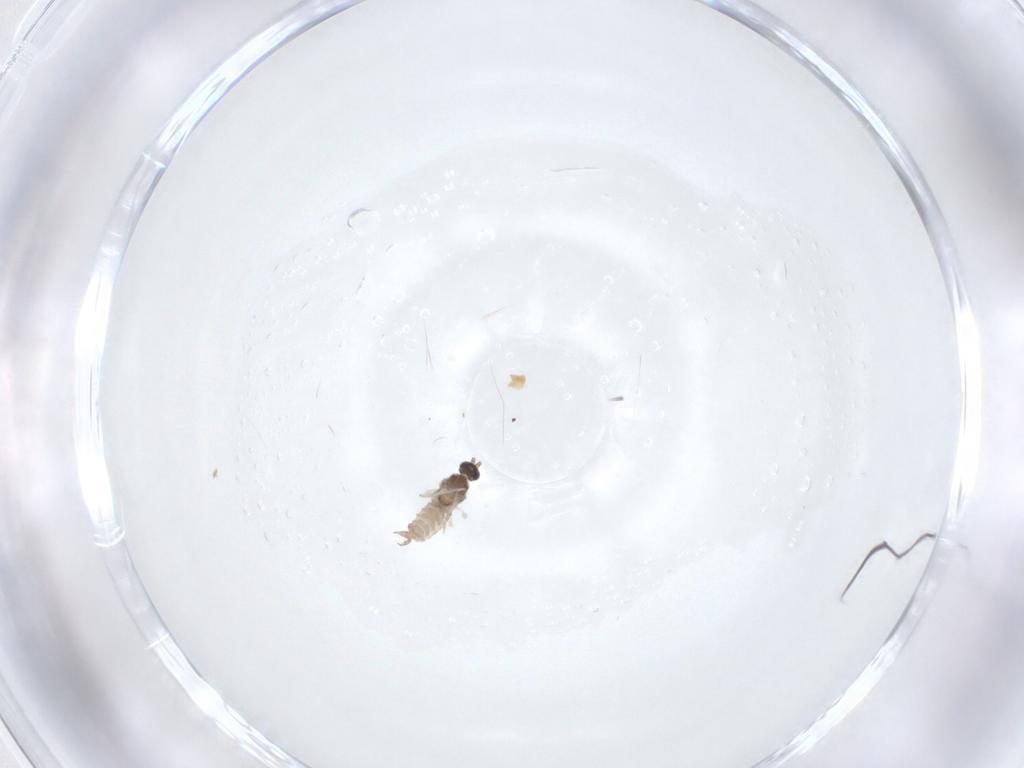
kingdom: Animalia
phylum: Arthropoda
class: Insecta
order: Diptera
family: Cecidomyiidae
